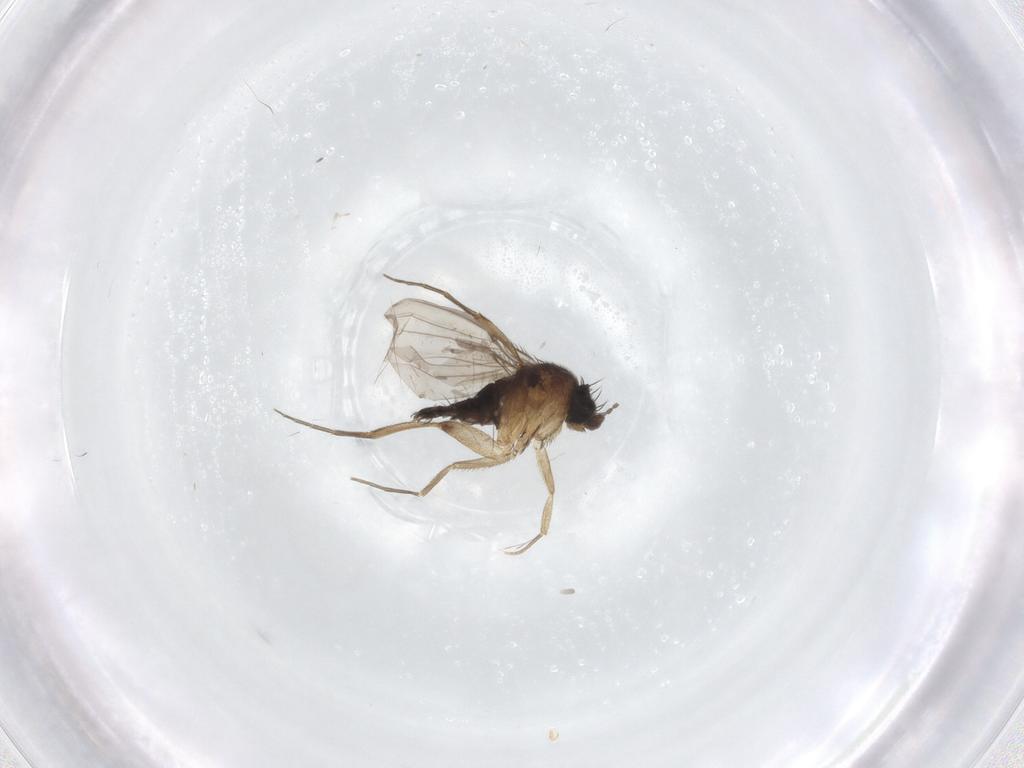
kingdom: Animalia
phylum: Arthropoda
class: Insecta
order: Diptera
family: Phoridae
